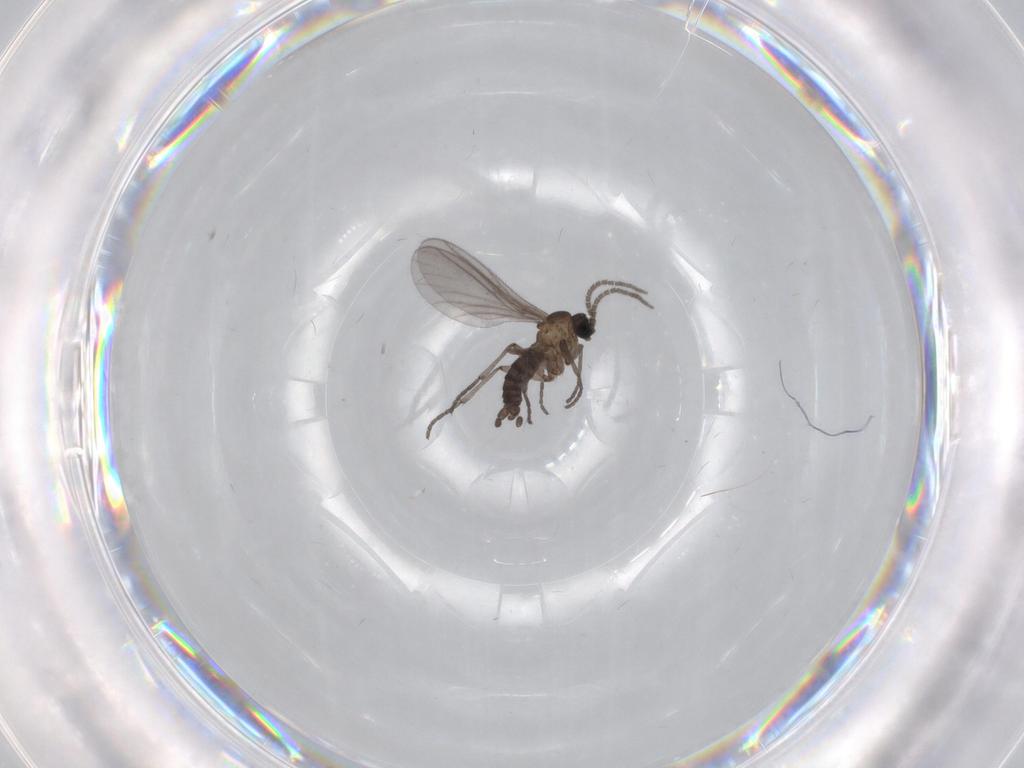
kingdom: Animalia
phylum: Arthropoda
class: Insecta
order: Diptera
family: Sciaridae
